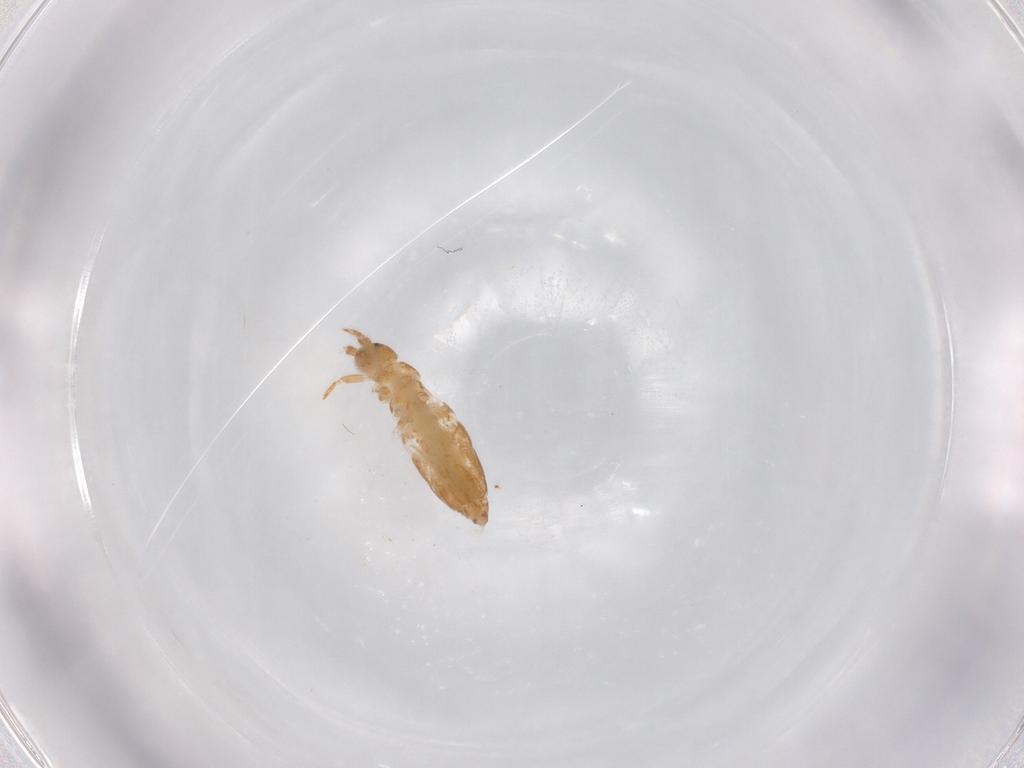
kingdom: Animalia
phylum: Arthropoda
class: Collembola
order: Entomobryomorpha
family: Entomobryidae
